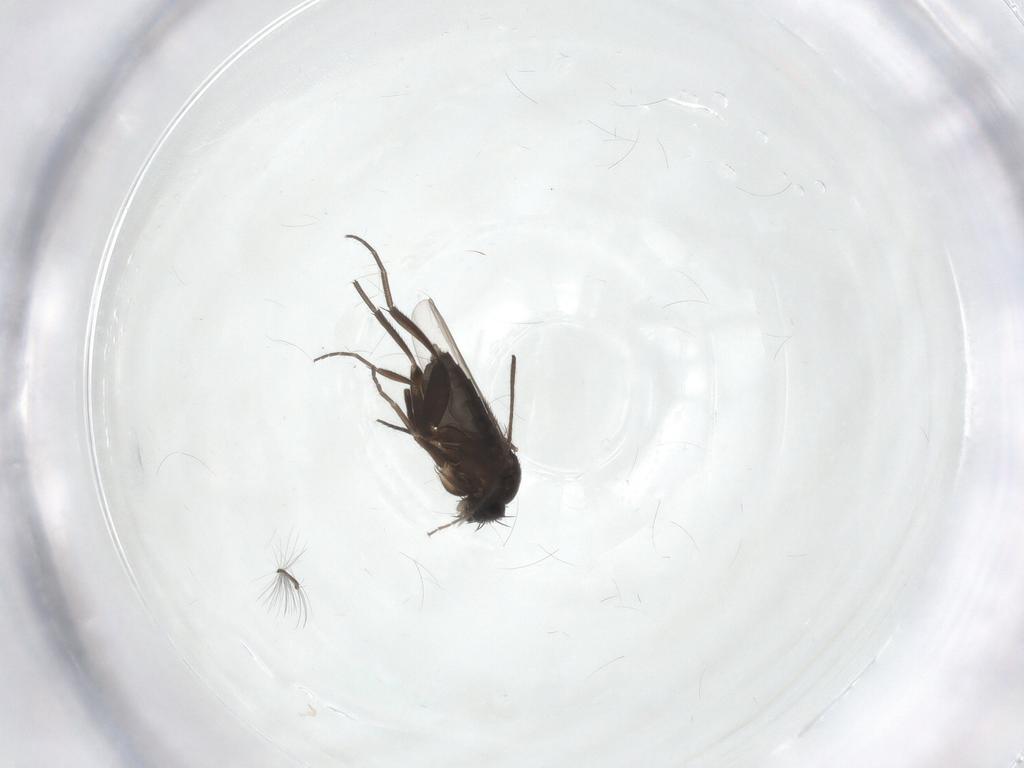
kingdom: Animalia
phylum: Arthropoda
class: Insecta
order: Diptera
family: Phoridae
